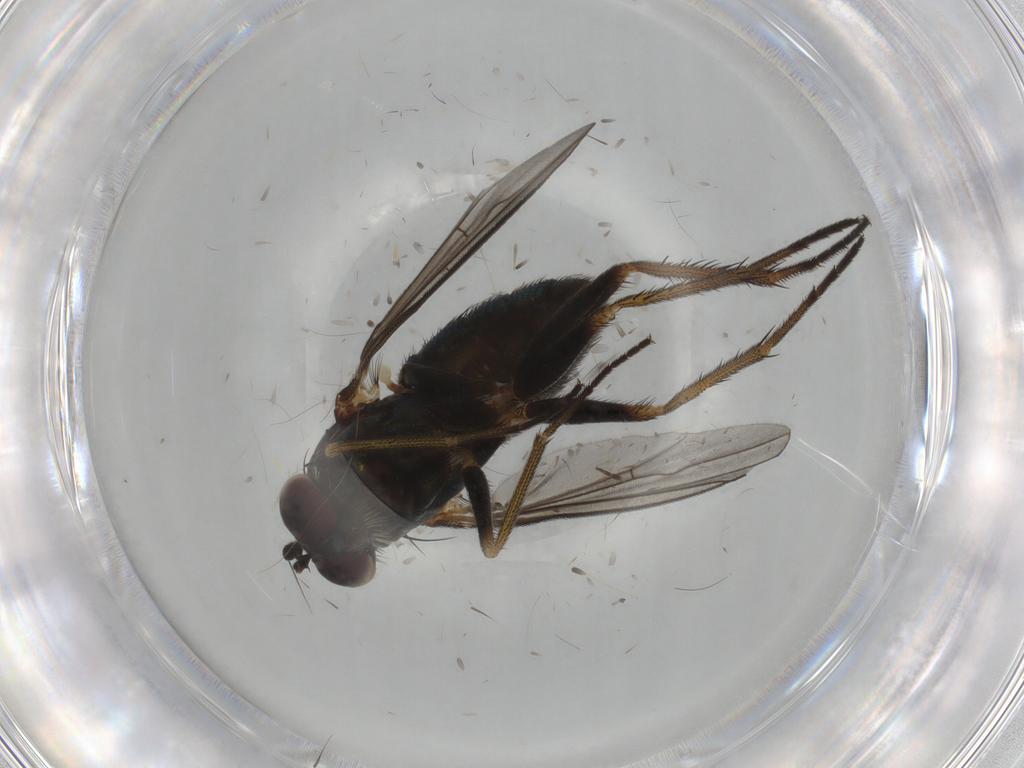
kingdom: Animalia
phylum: Arthropoda
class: Insecta
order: Diptera
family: Dolichopodidae
